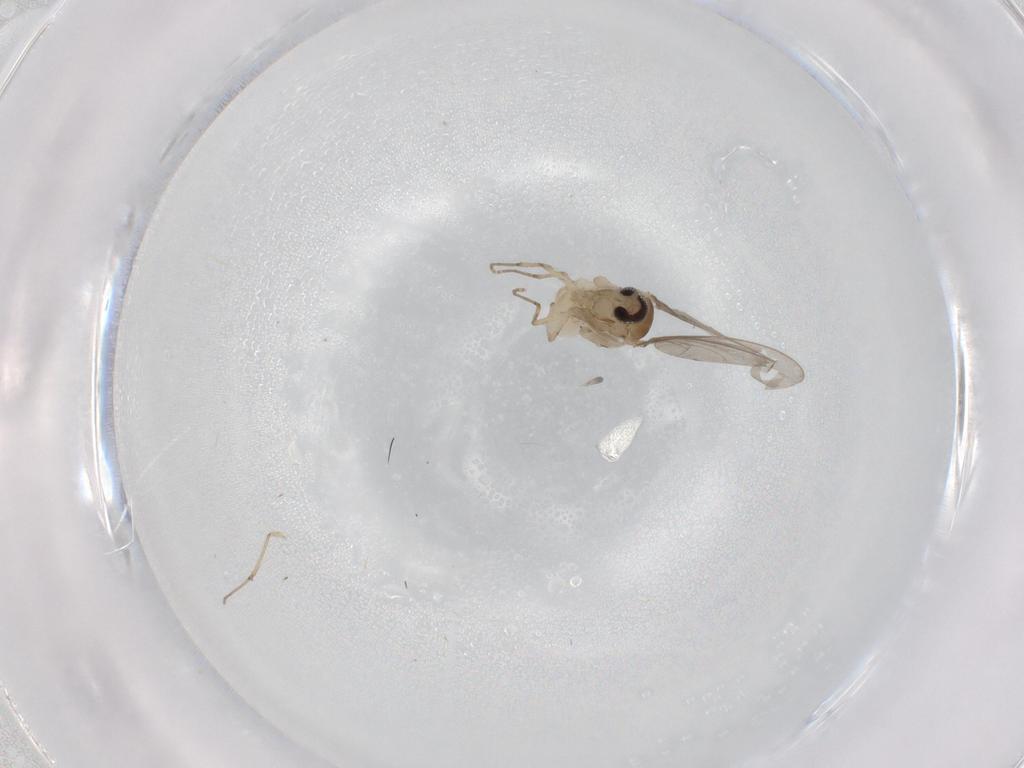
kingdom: Animalia
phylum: Arthropoda
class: Insecta
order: Diptera
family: Cecidomyiidae
